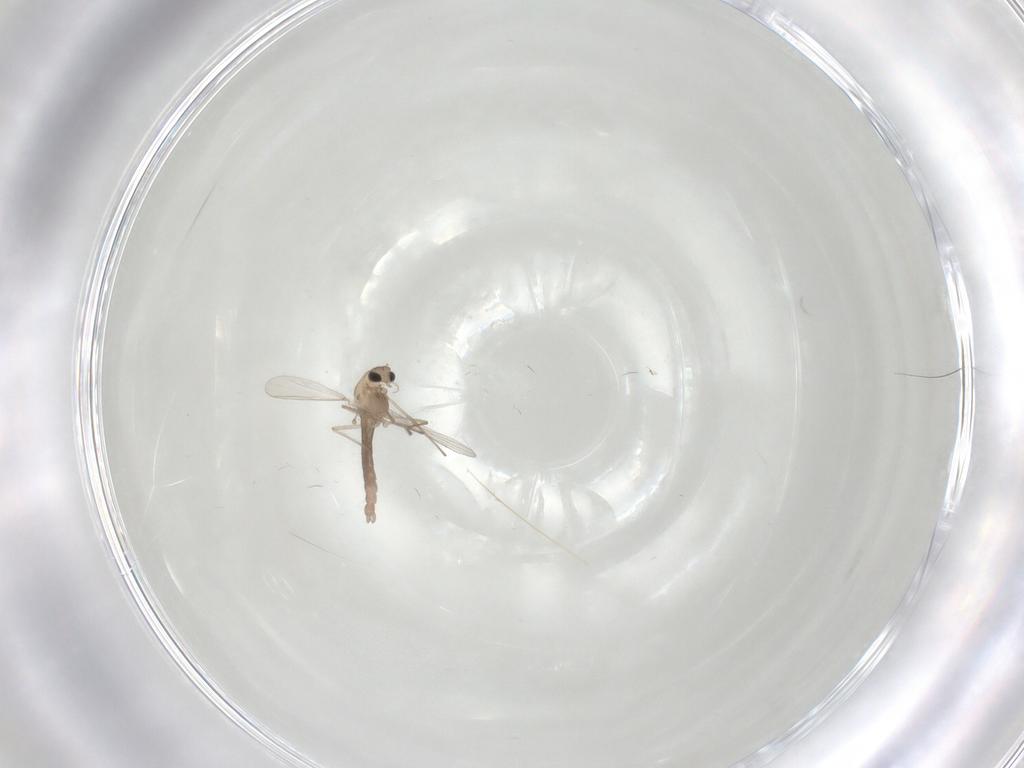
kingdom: Animalia
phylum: Arthropoda
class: Insecta
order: Diptera
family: Chironomidae
